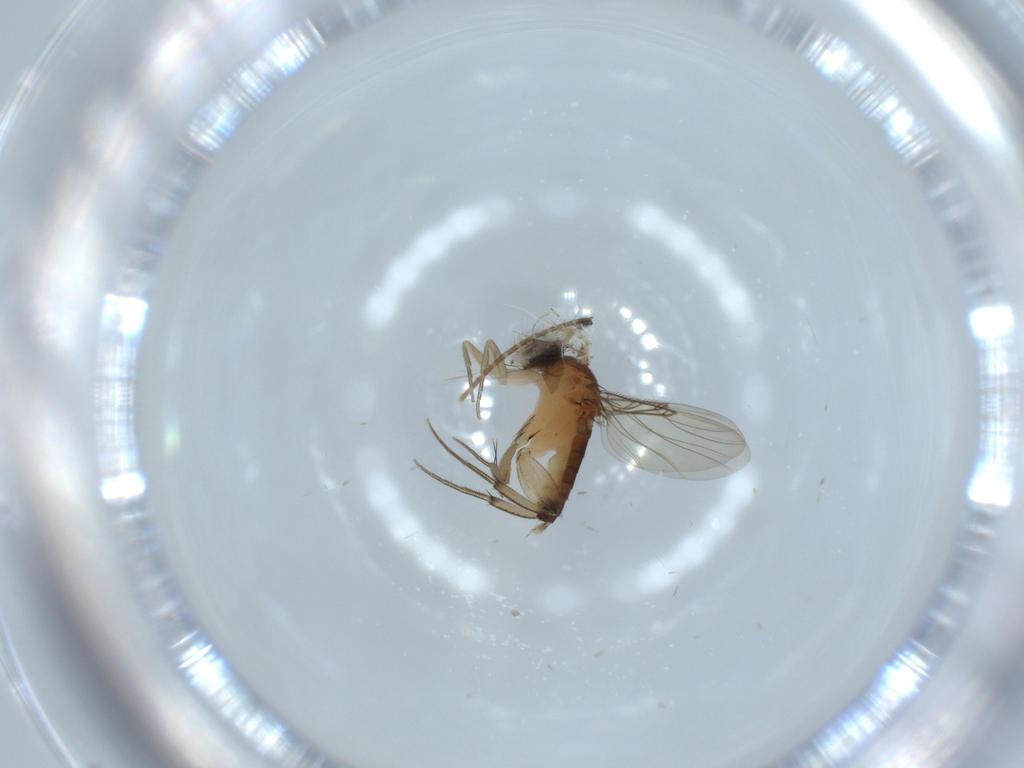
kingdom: Animalia
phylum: Arthropoda
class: Insecta
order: Diptera
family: Phoridae
